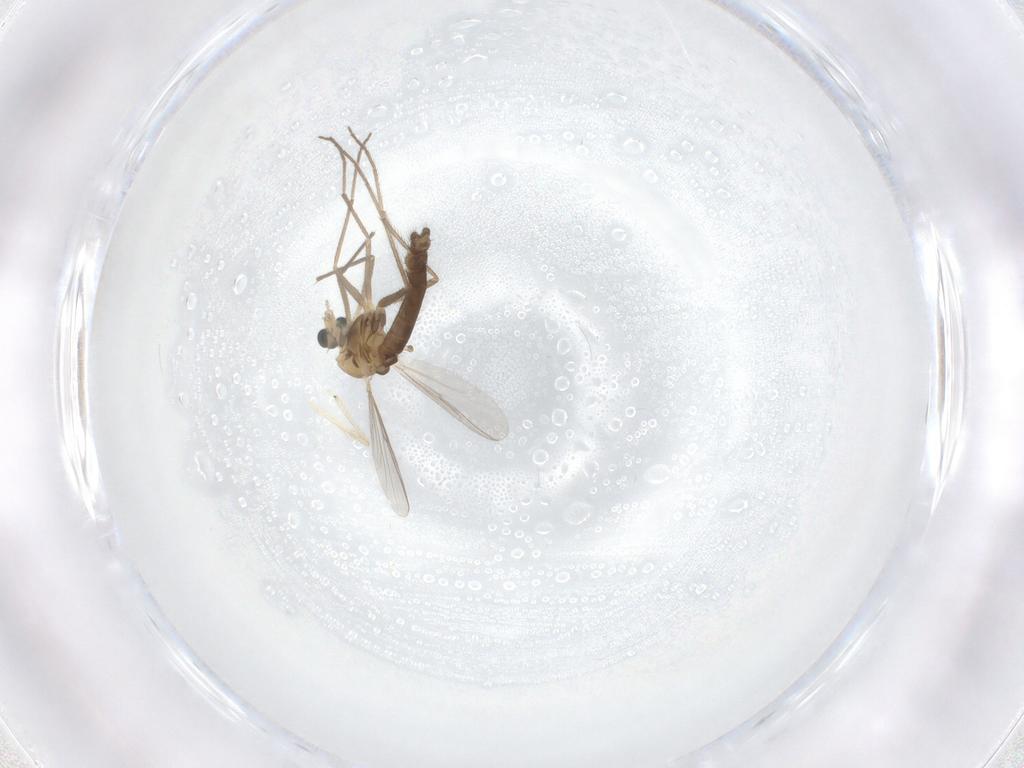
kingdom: Animalia
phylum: Arthropoda
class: Insecta
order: Diptera
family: Chironomidae
